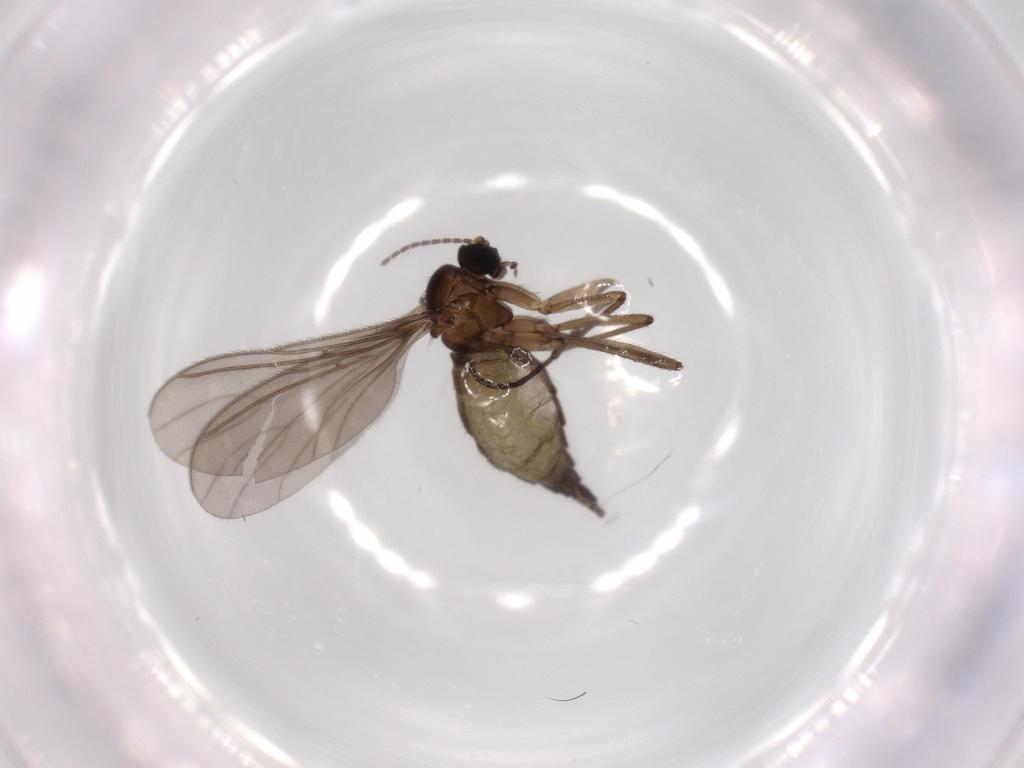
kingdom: Animalia
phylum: Arthropoda
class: Insecta
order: Diptera
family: Sciaridae
